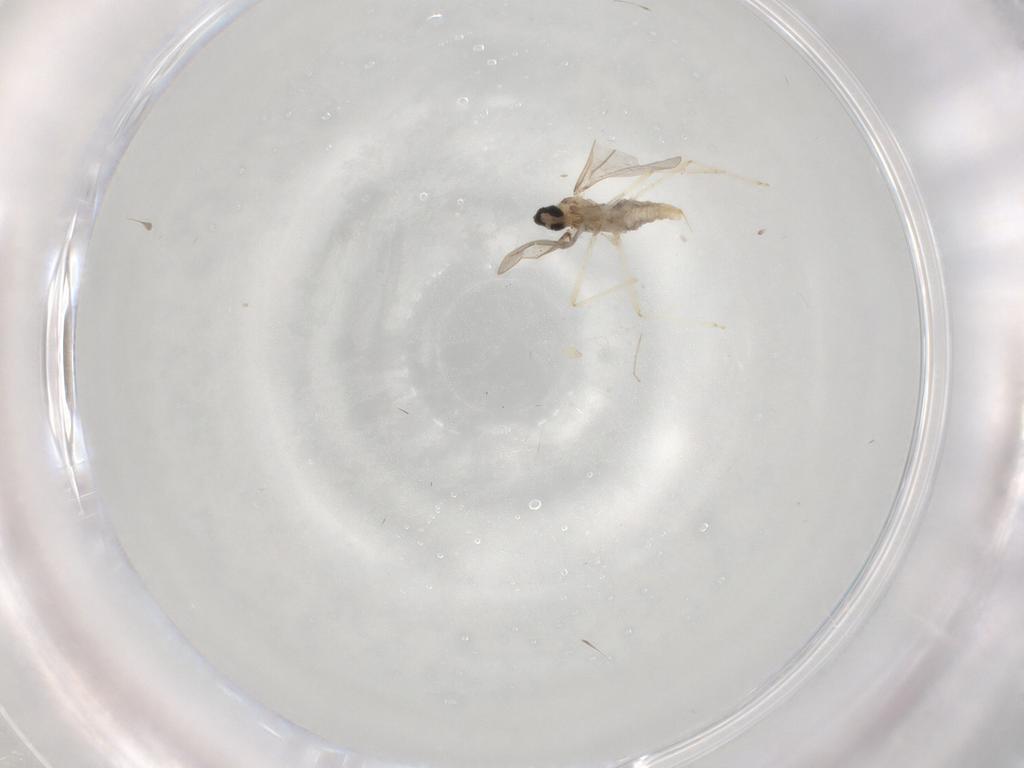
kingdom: Animalia
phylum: Arthropoda
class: Insecta
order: Diptera
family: Cecidomyiidae
